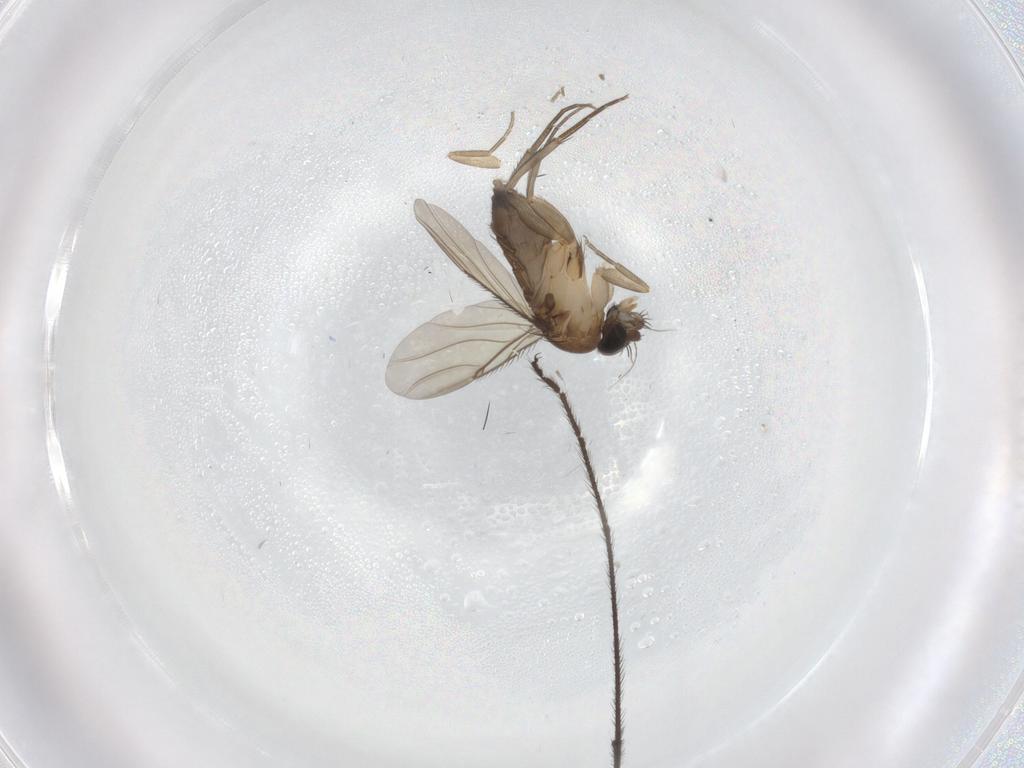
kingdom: Animalia
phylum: Arthropoda
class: Insecta
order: Diptera
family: Phoridae
